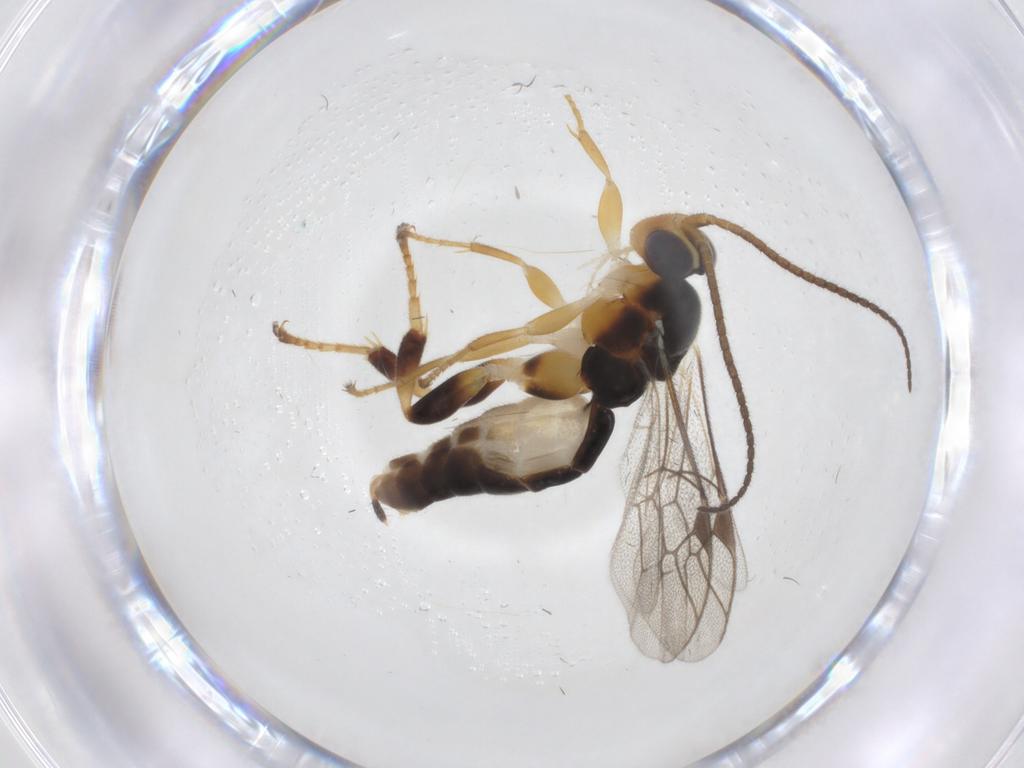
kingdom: Animalia
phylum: Arthropoda
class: Insecta
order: Hymenoptera
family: Ichneumonidae
